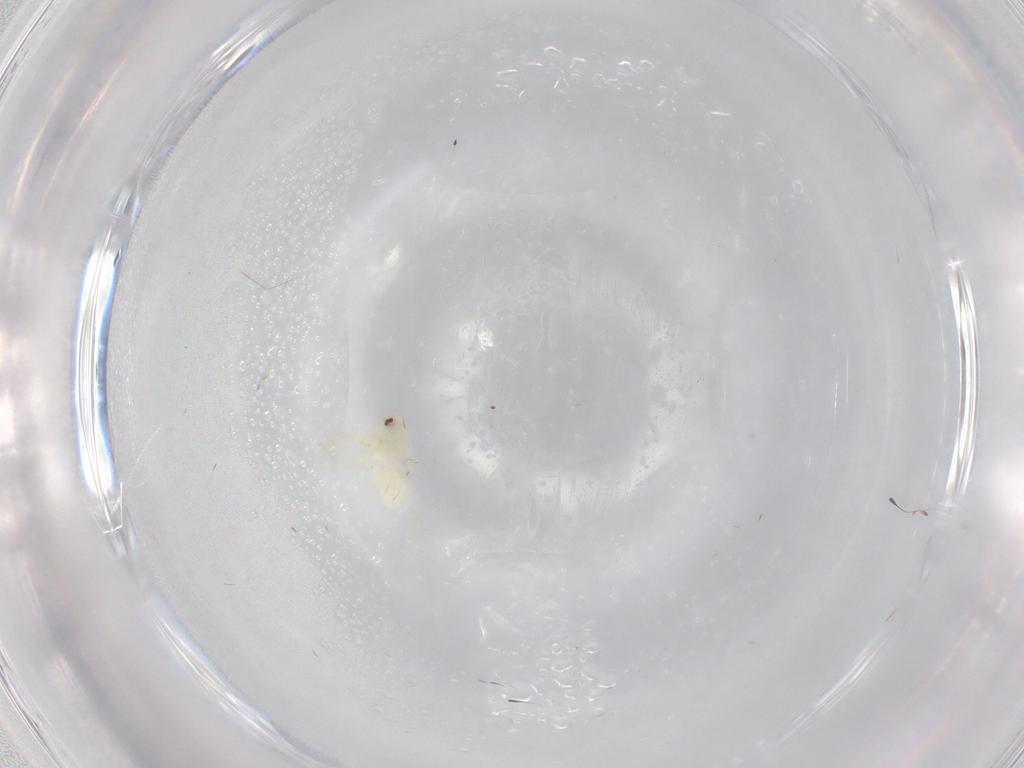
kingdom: Animalia
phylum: Arthropoda
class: Insecta
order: Hemiptera
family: Aleyrodidae
